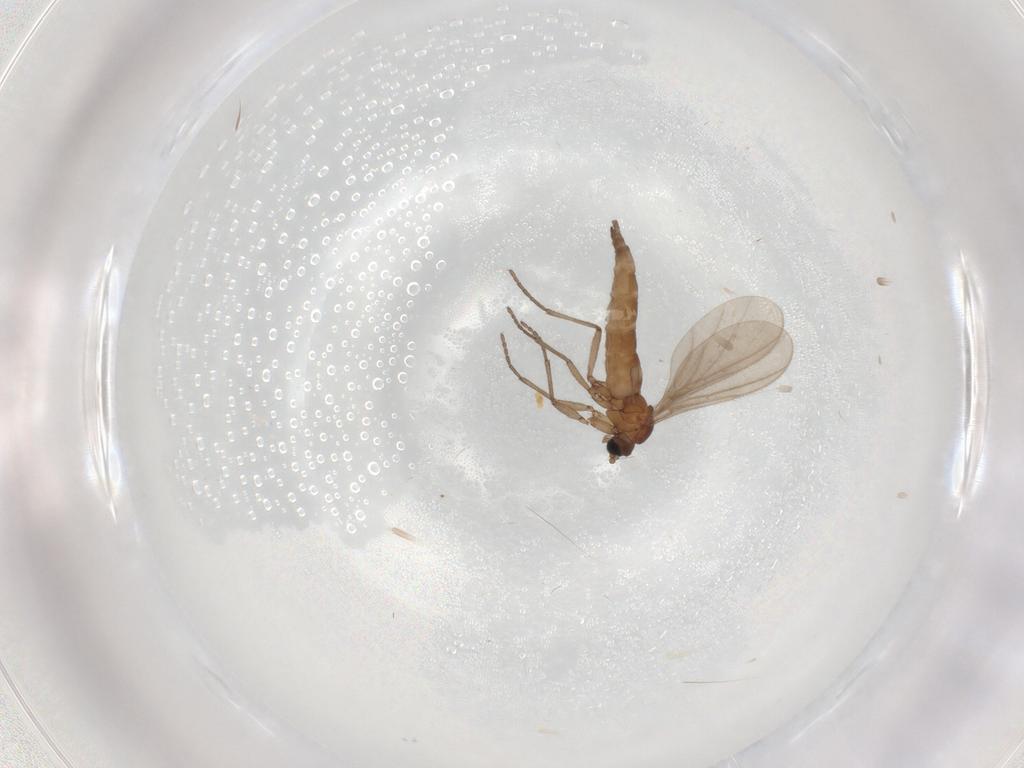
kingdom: Animalia
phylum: Arthropoda
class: Insecta
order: Diptera
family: Sciaridae
